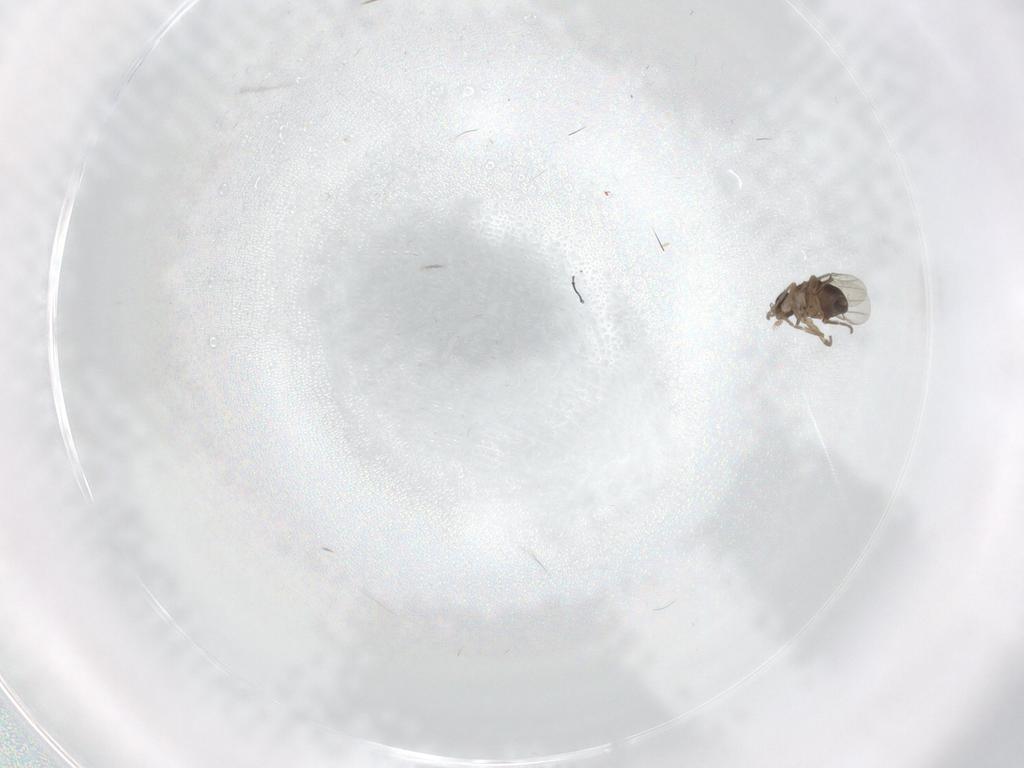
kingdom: Animalia
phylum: Arthropoda
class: Insecta
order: Diptera
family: Phoridae
